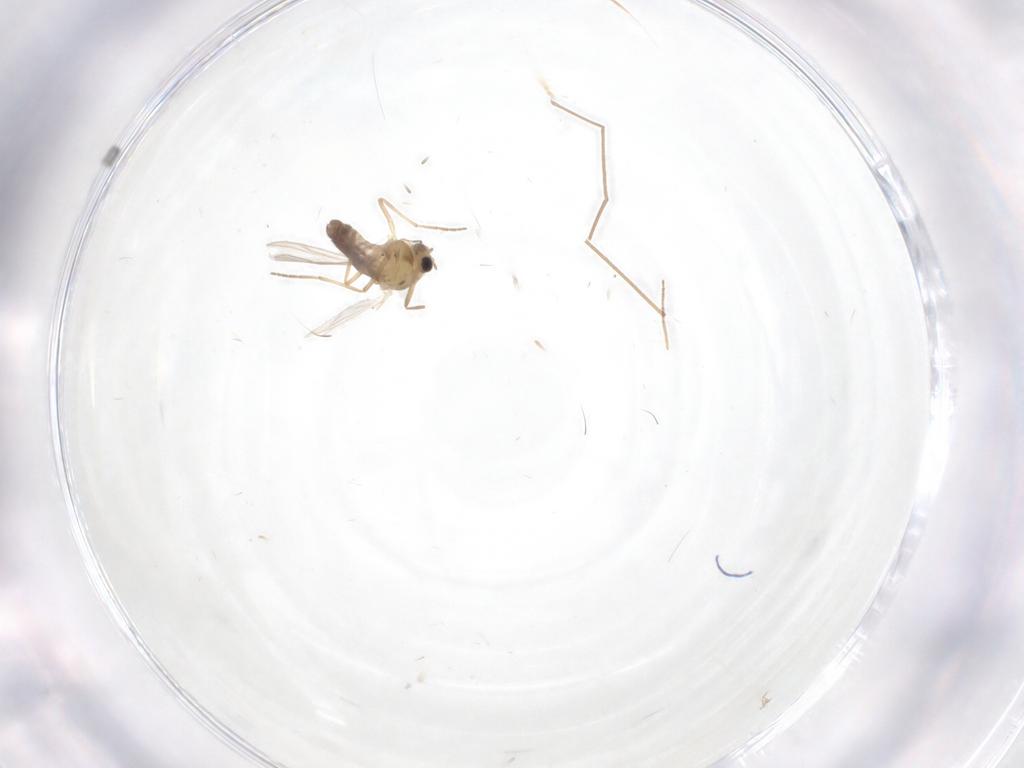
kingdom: Animalia
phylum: Arthropoda
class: Insecta
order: Diptera
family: Chironomidae
